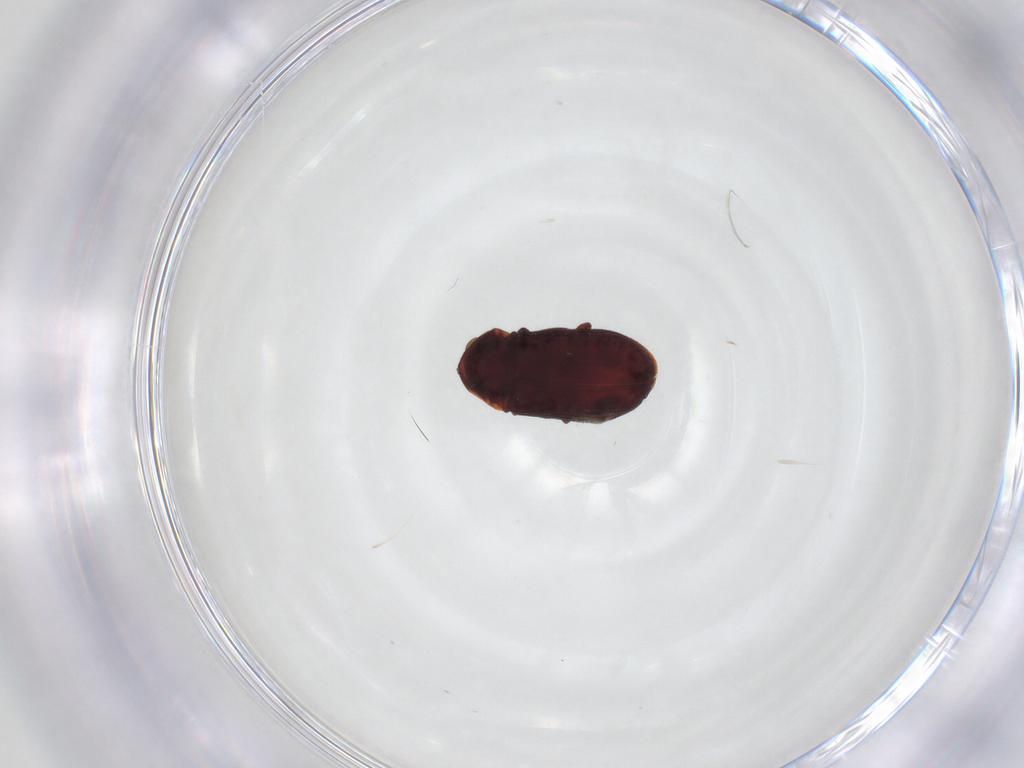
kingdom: Animalia
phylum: Arthropoda
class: Insecta
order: Coleoptera
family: Ptinidae
